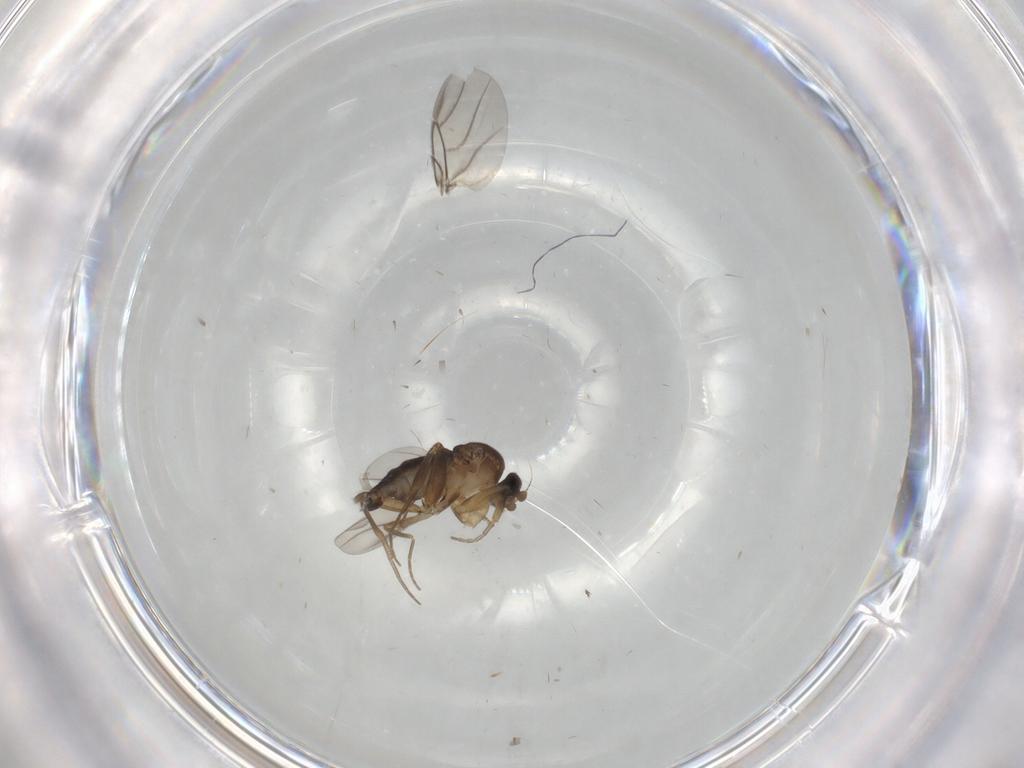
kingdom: Animalia
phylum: Arthropoda
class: Insecta
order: Diptera
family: Phoridae
